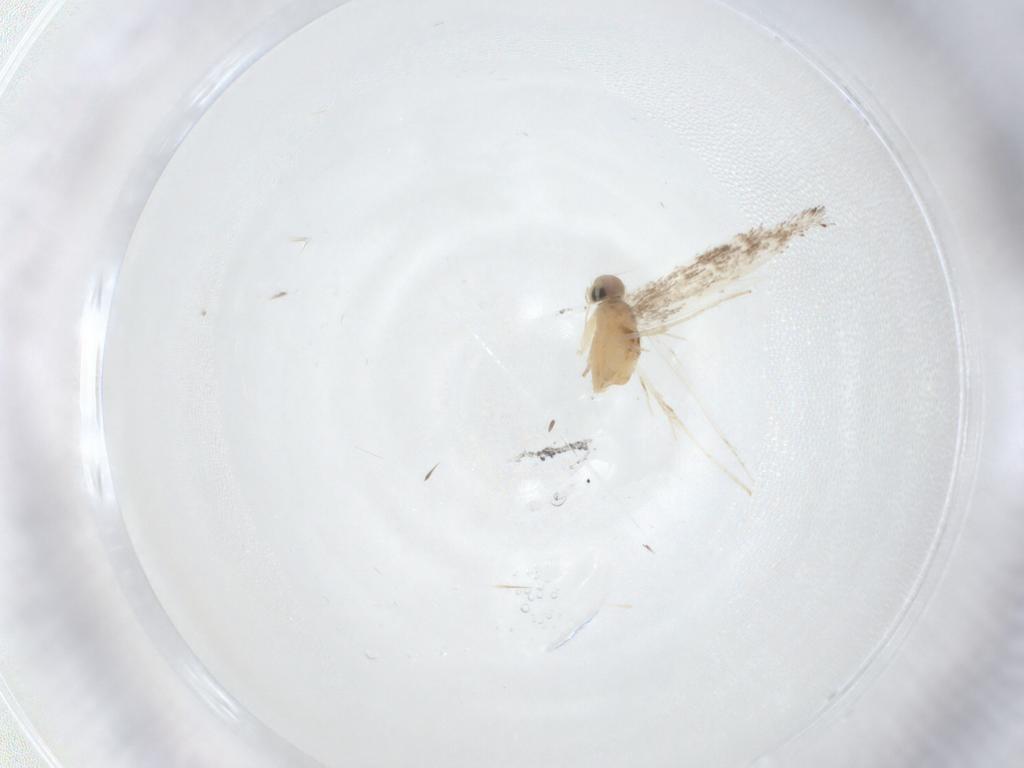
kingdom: Animalia
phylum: Arthropoda
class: Insecta
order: Lepidoptera
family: Tortricidae
